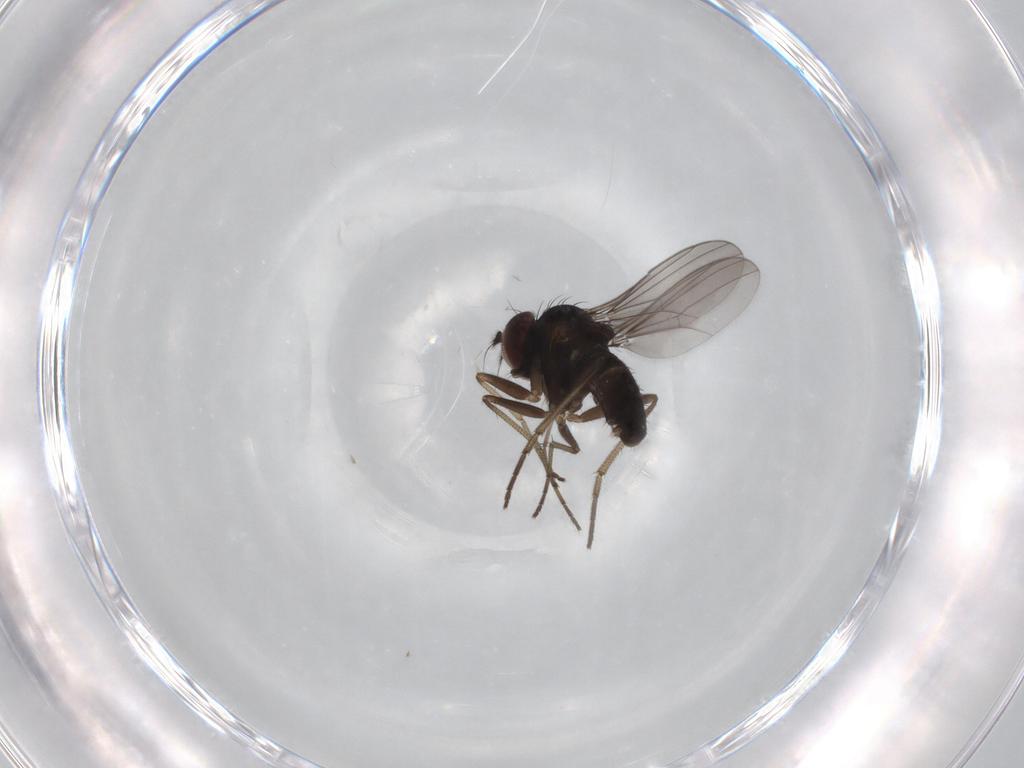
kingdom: Animalia
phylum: Arthropoda
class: Insecta
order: Diptera
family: Dolichopodidae
